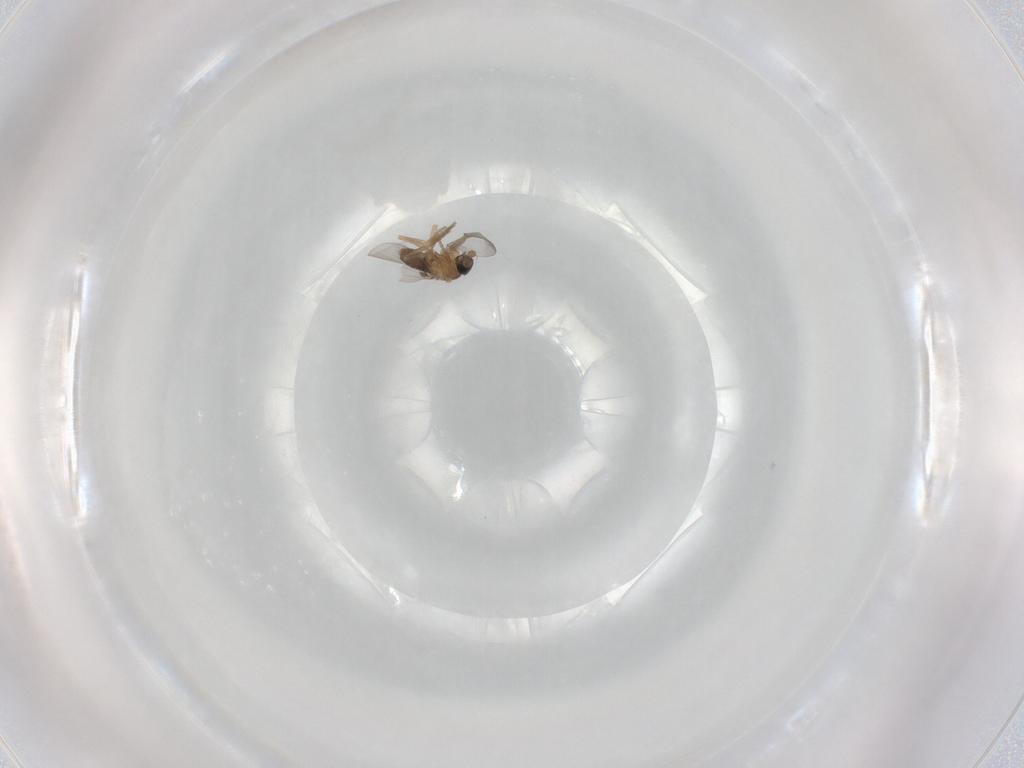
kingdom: Animalia
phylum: Arthropoda
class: Insecta
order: Diptera
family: Phoridae
